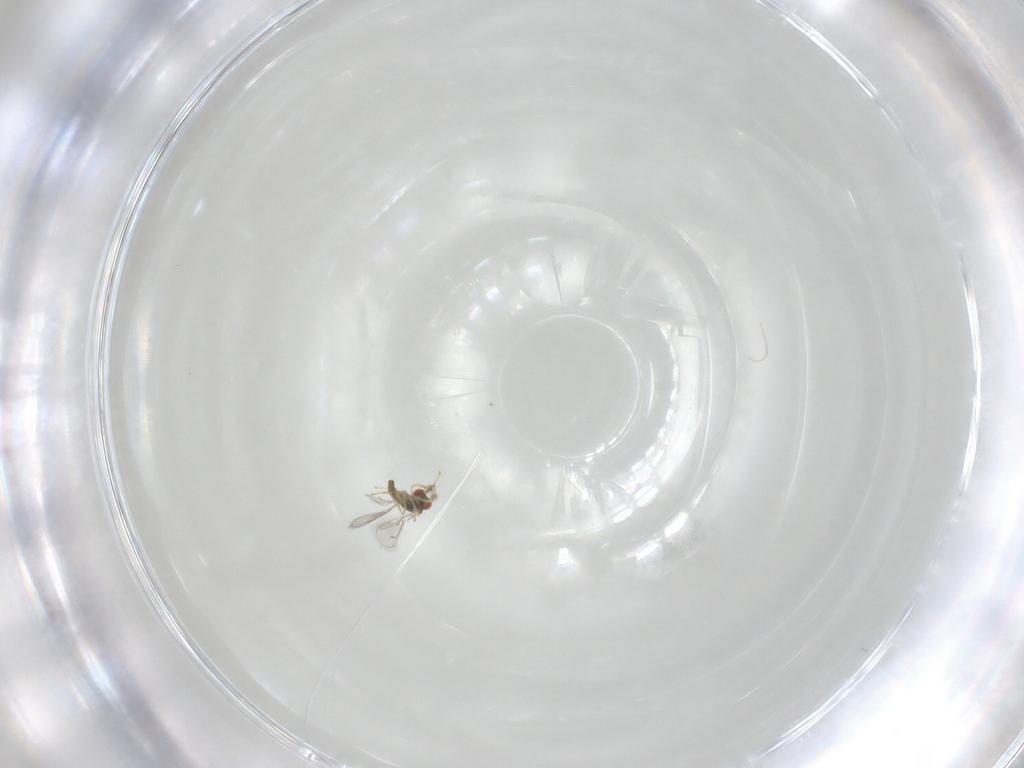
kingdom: Animalia
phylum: Arthropoda
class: Insecta
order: Hymenoptera
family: Eulophidae
